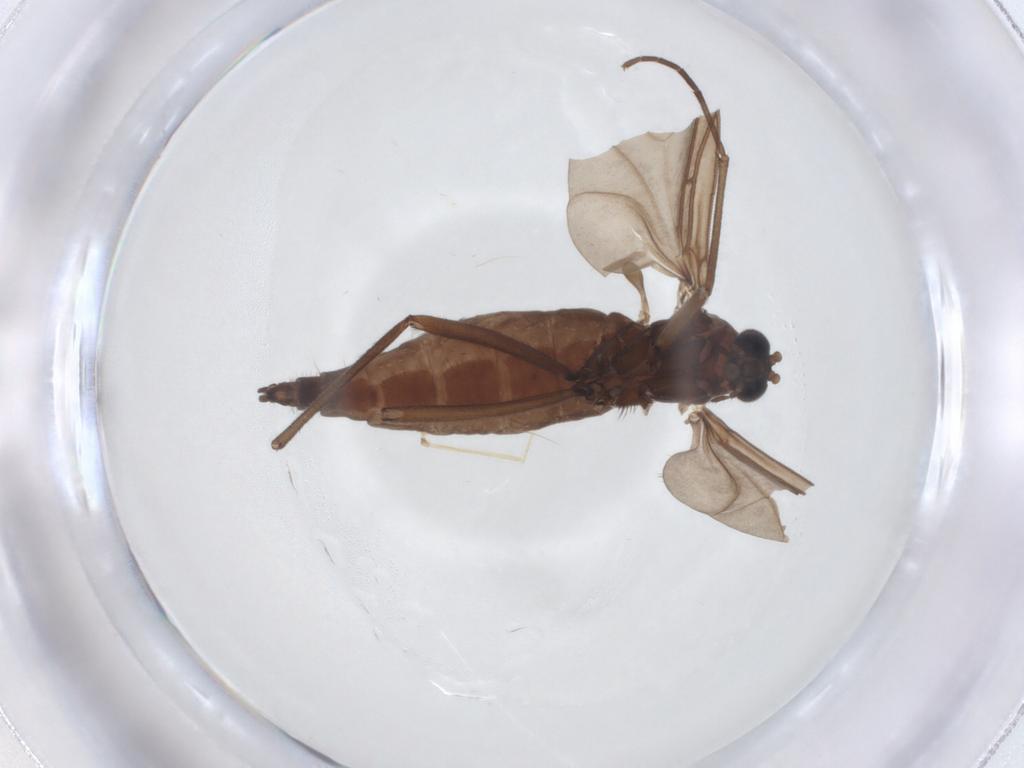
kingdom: Animalia
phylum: Arthropoda
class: Insecta
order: Diptera
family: Sciaridae
